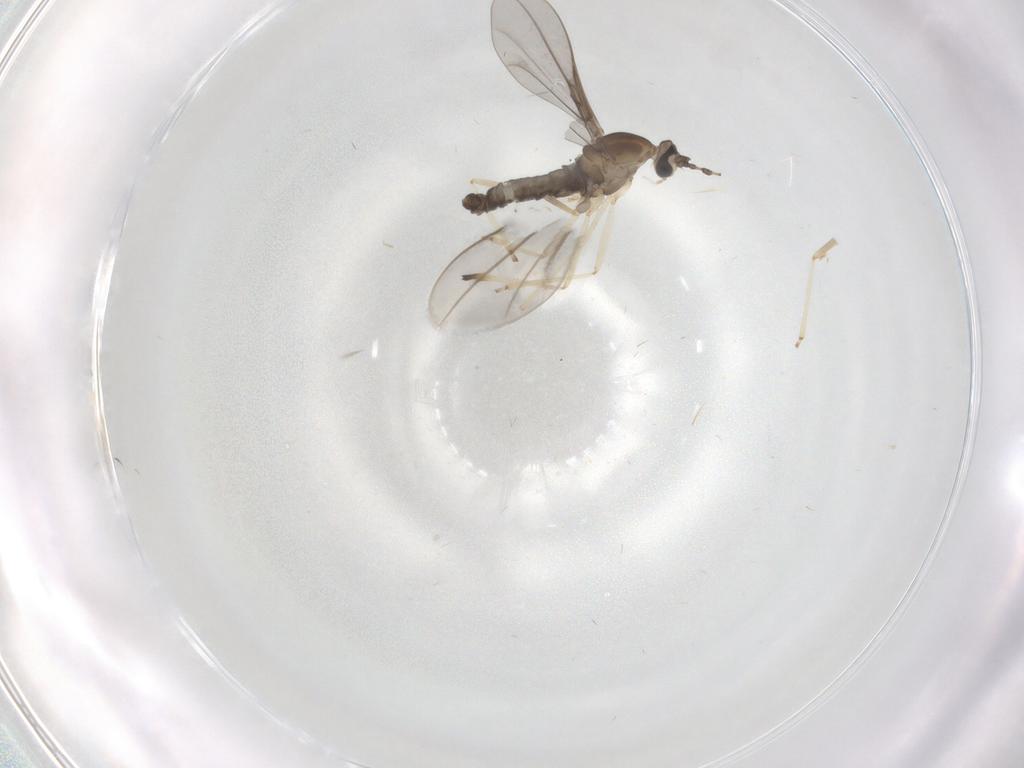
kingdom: Animalia
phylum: Arthropoda
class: Insecta
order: Diptera
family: Sciaridae
